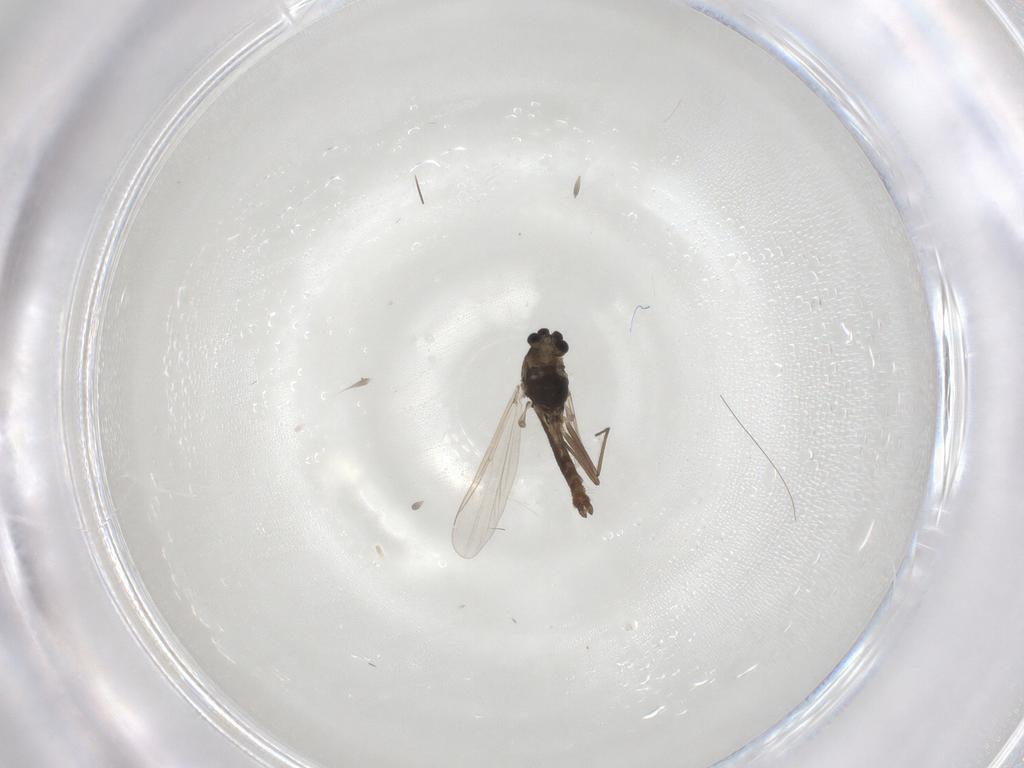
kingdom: Animalia
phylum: Arthropoda
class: Insecta
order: Diptera
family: Chironomidae
